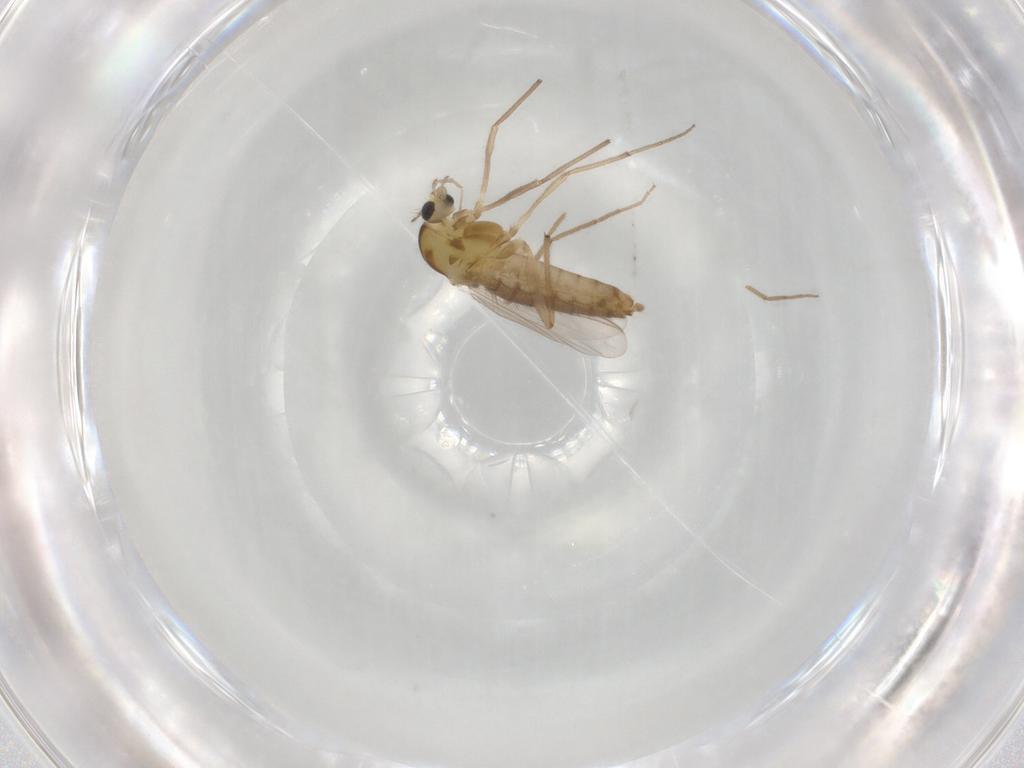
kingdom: Animalia
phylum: Arthropoda
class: Insecta
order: Diptera
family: Chironomidae
